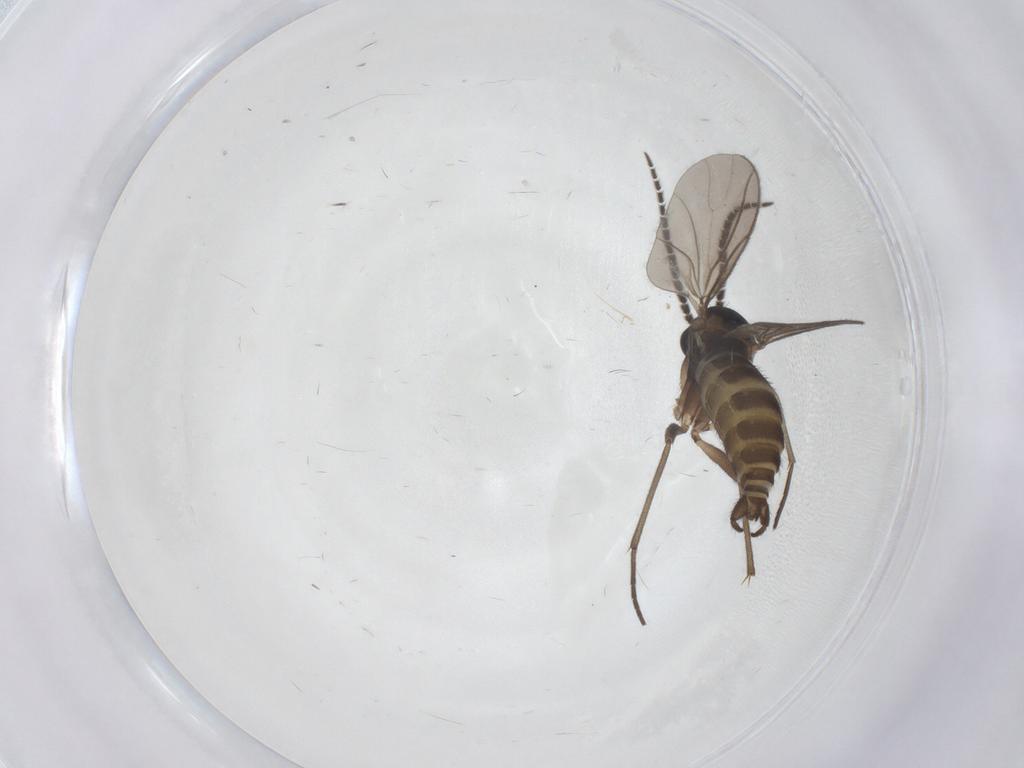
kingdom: Animalia
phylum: Arthropoda
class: Insecta
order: Diptera
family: Sciaridae
